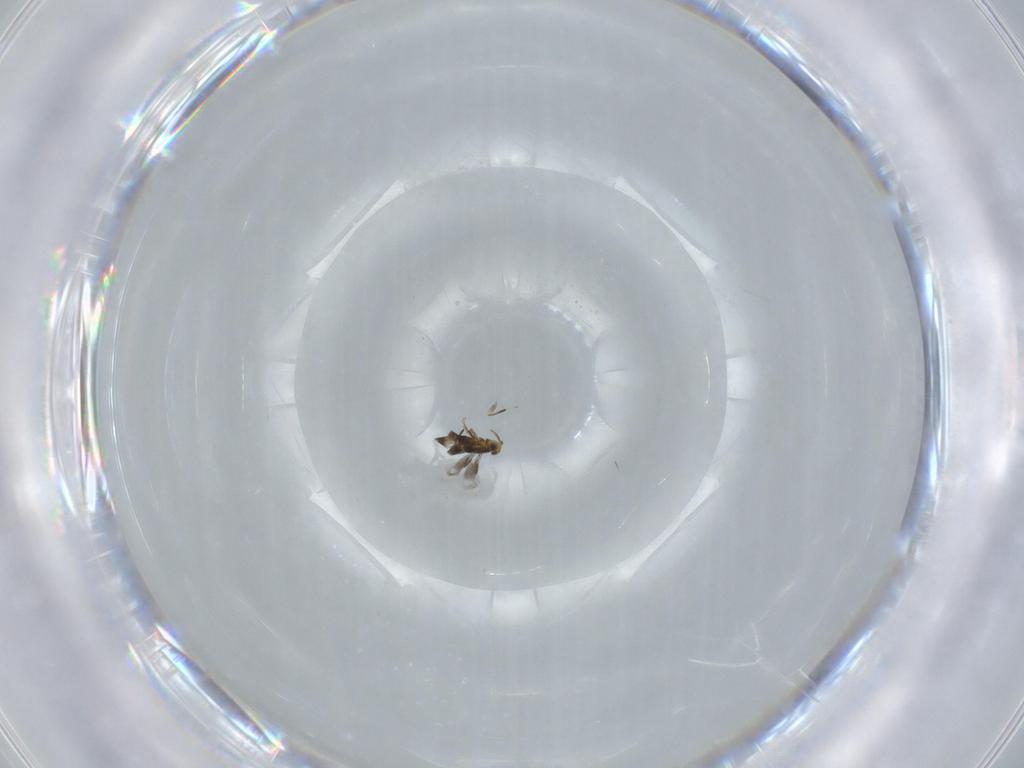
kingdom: Animalia
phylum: Arthropoda
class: Insecta
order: Hymenoptera
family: Signiphoridae
